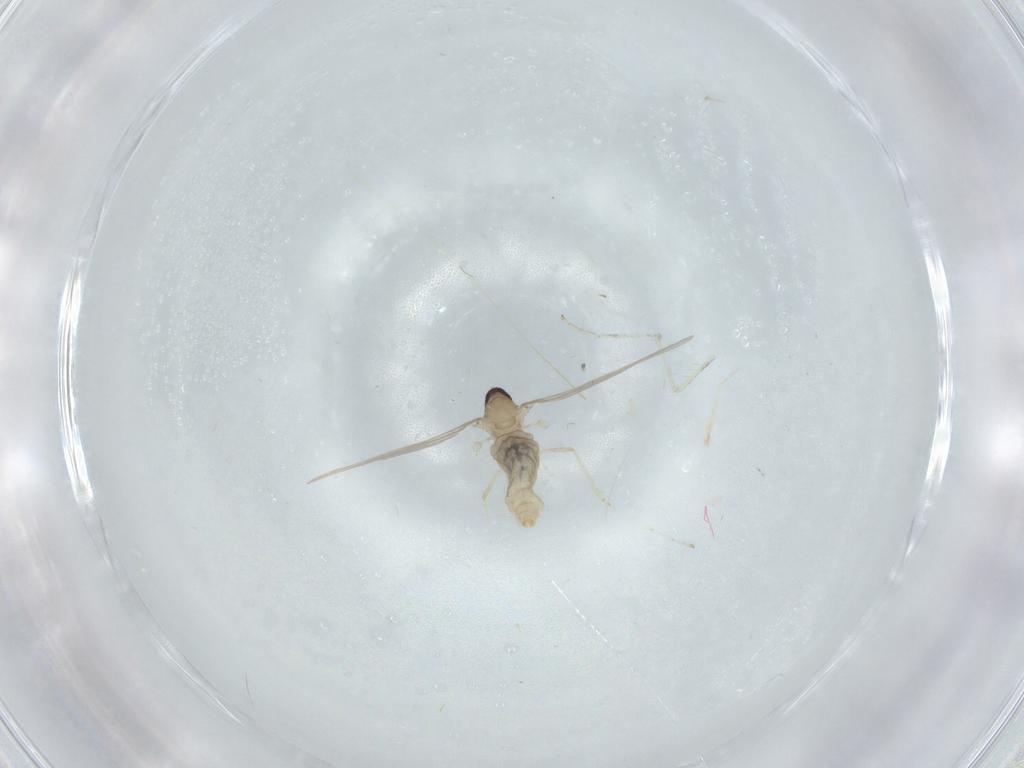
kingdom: Animalia
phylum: Arthropoda
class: Insecta
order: Diptera
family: Cecidomyiidae
